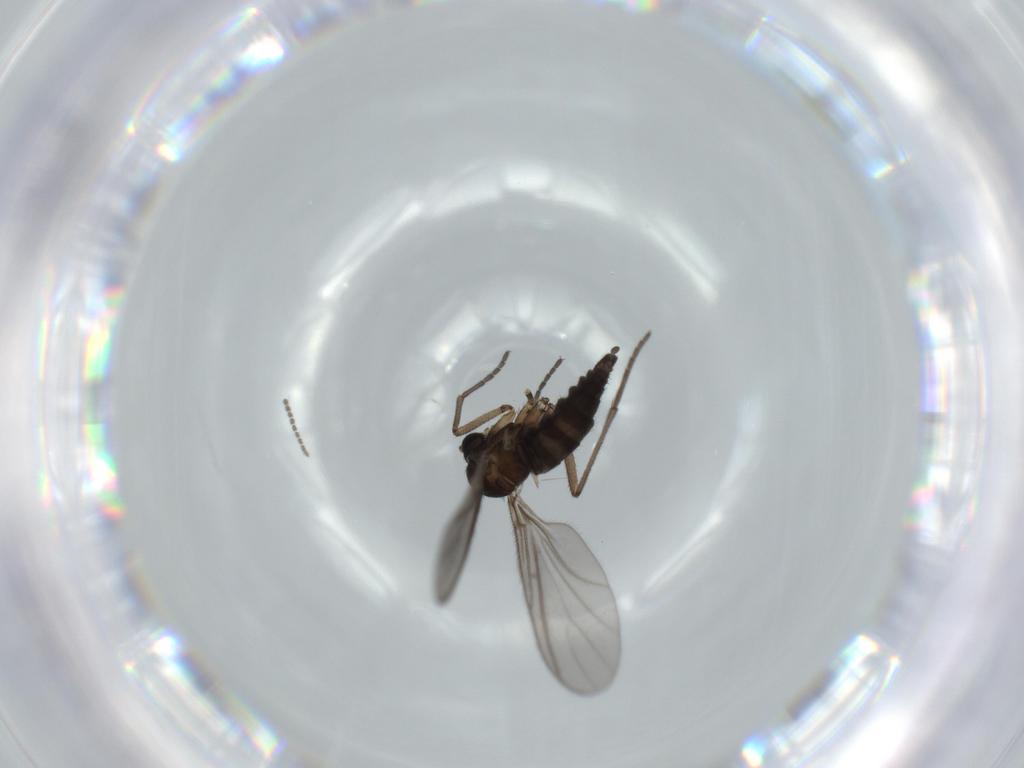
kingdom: Animalia
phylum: Arthropoda
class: Insecta
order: Diptera
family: Sciaridae
